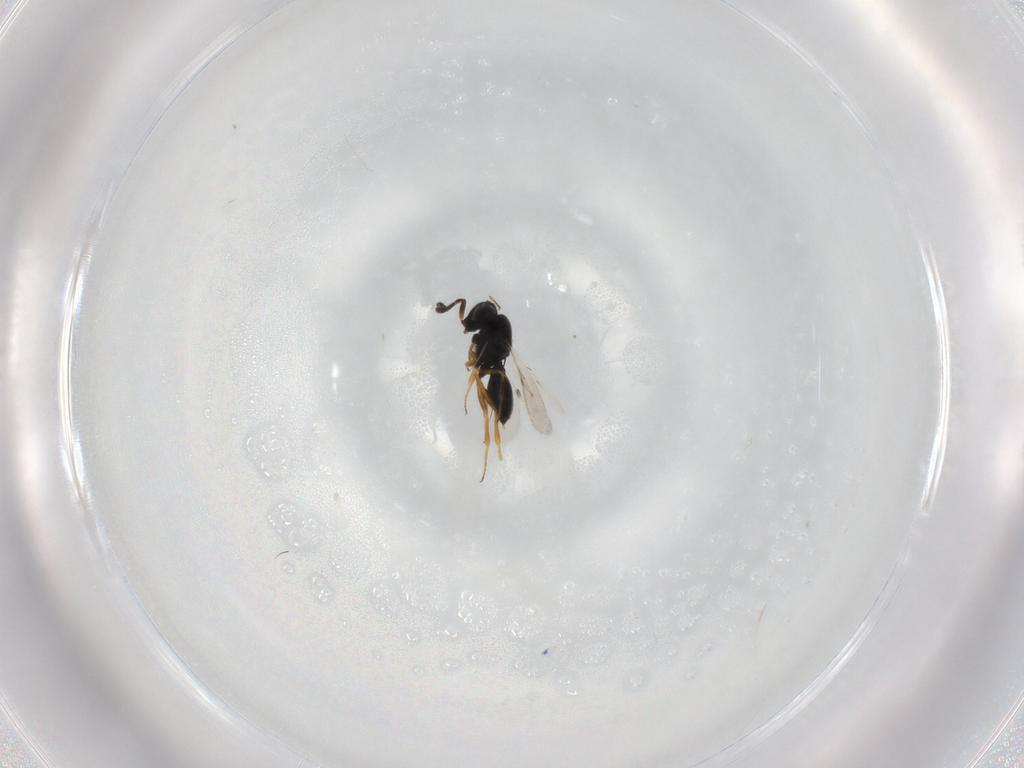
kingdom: Animalia
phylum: Arthropoda
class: Insecta
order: Hymenoptera
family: Scelionidae
